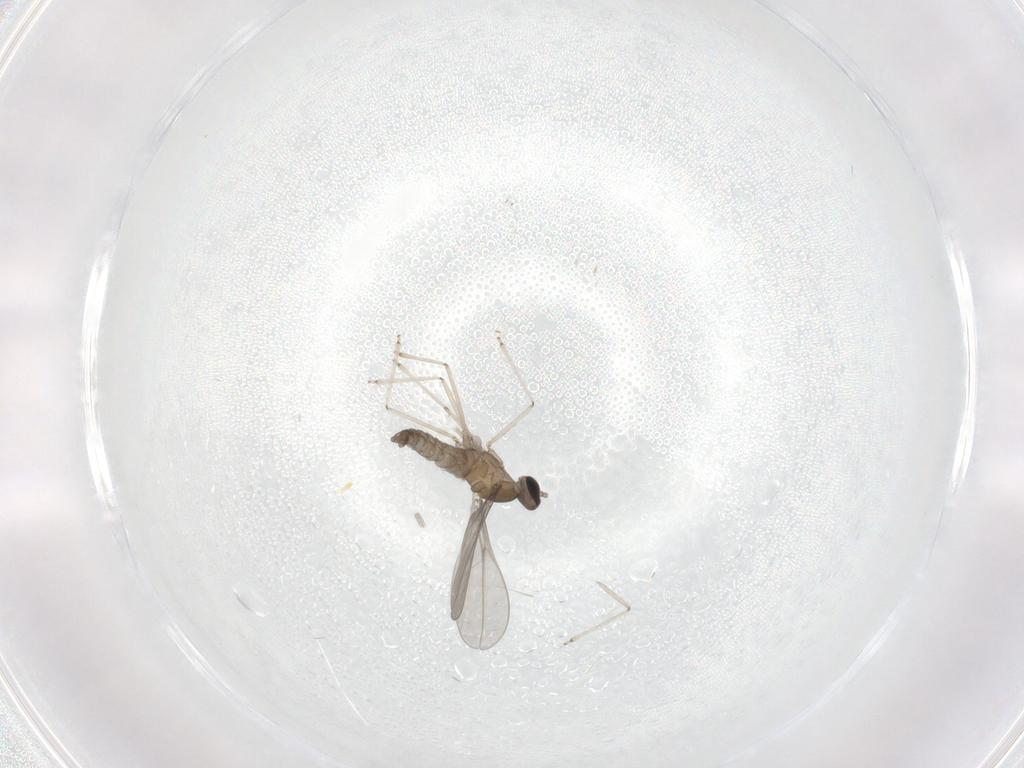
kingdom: Animalia
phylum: Arthropoda
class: Insecta
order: Diptera
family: Cecidomyiidae
